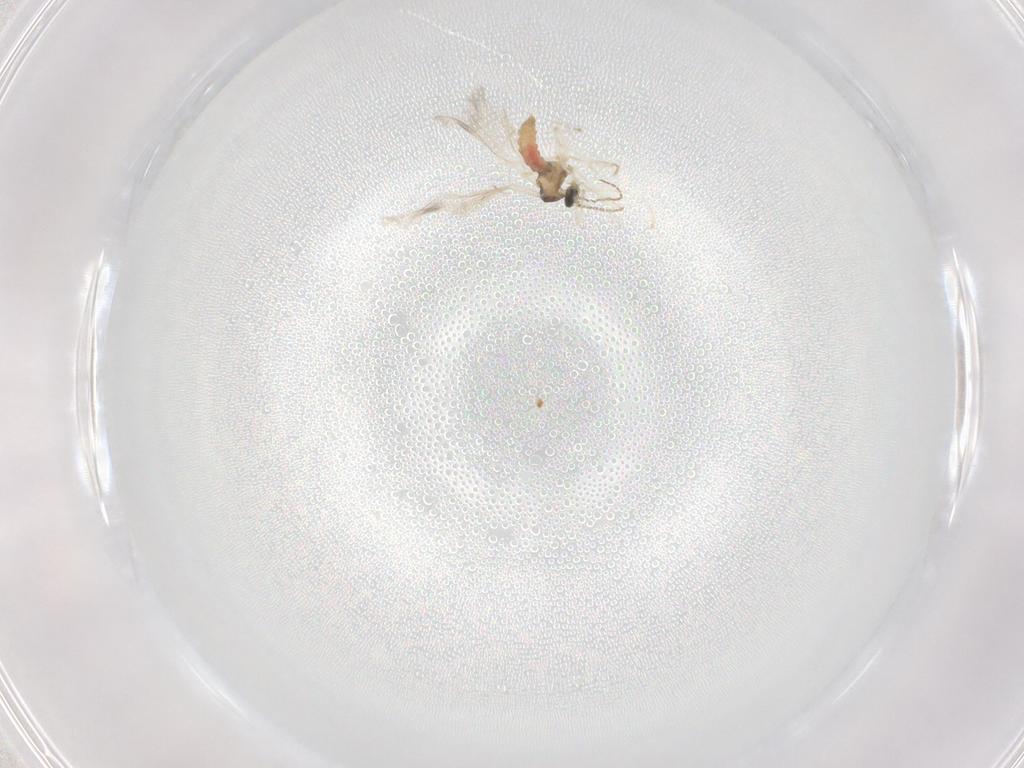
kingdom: Animalia
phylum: Arthropoda
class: Insecta
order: Diptera
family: Cecidomyiidae
